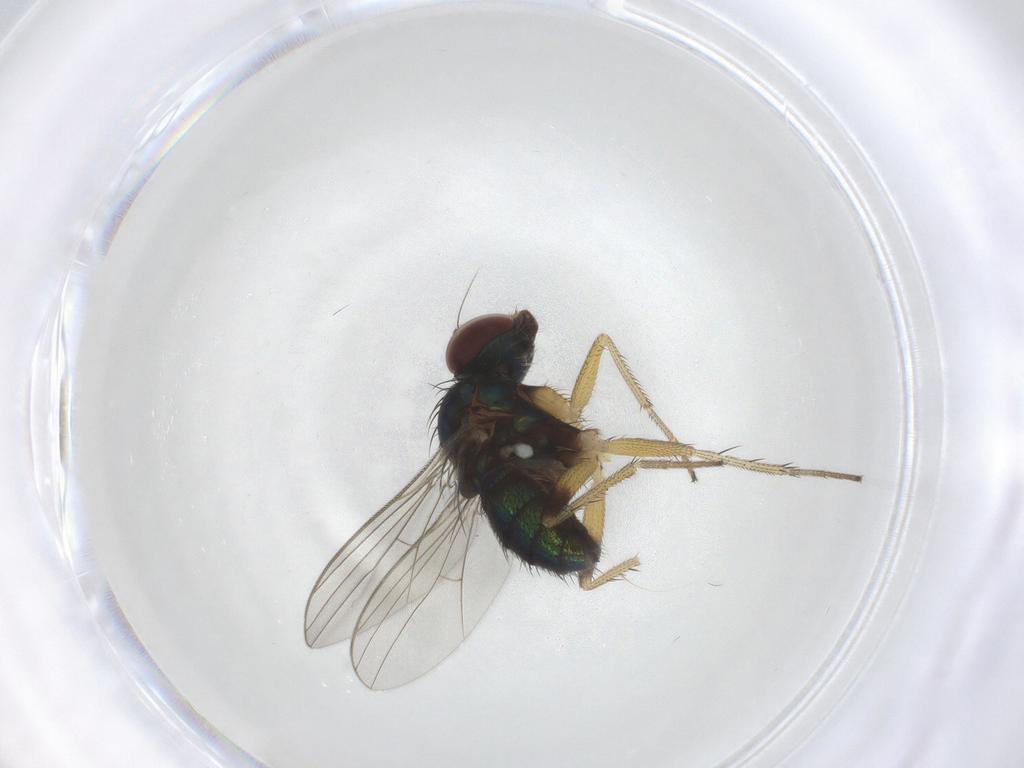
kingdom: Animalia
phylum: Arthropoda
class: Insecta
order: Diptera
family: Dolichopodidae
